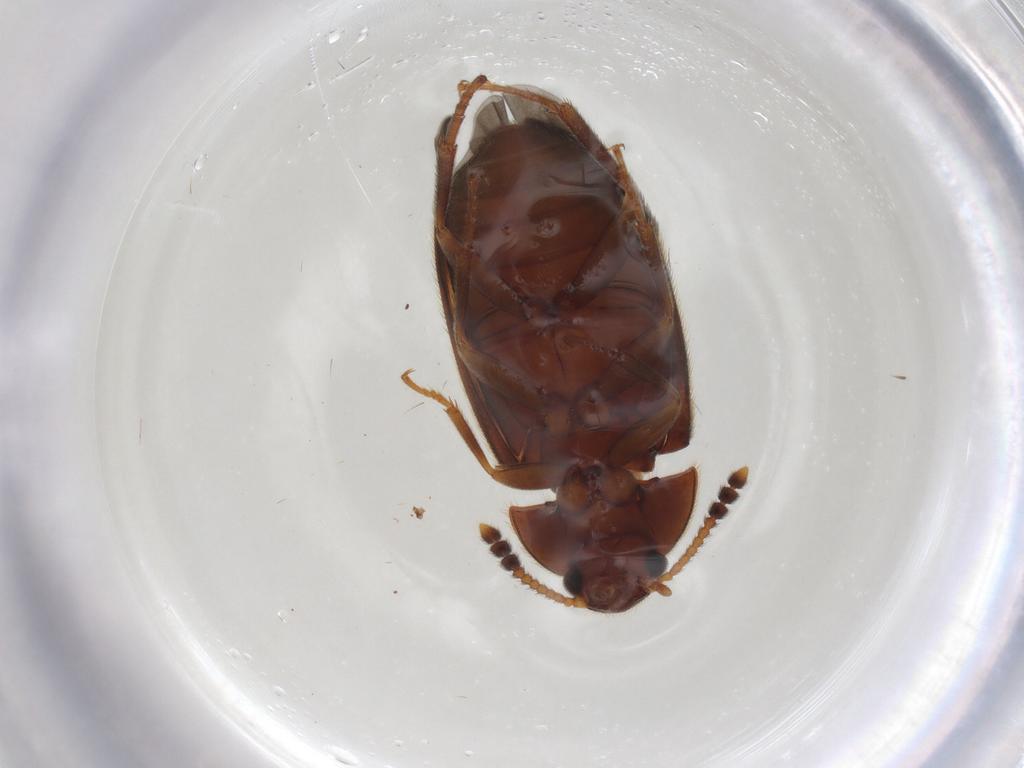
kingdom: Animalia
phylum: Arthropoda
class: Insecta
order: Coleoptera
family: Mycetophagidae
